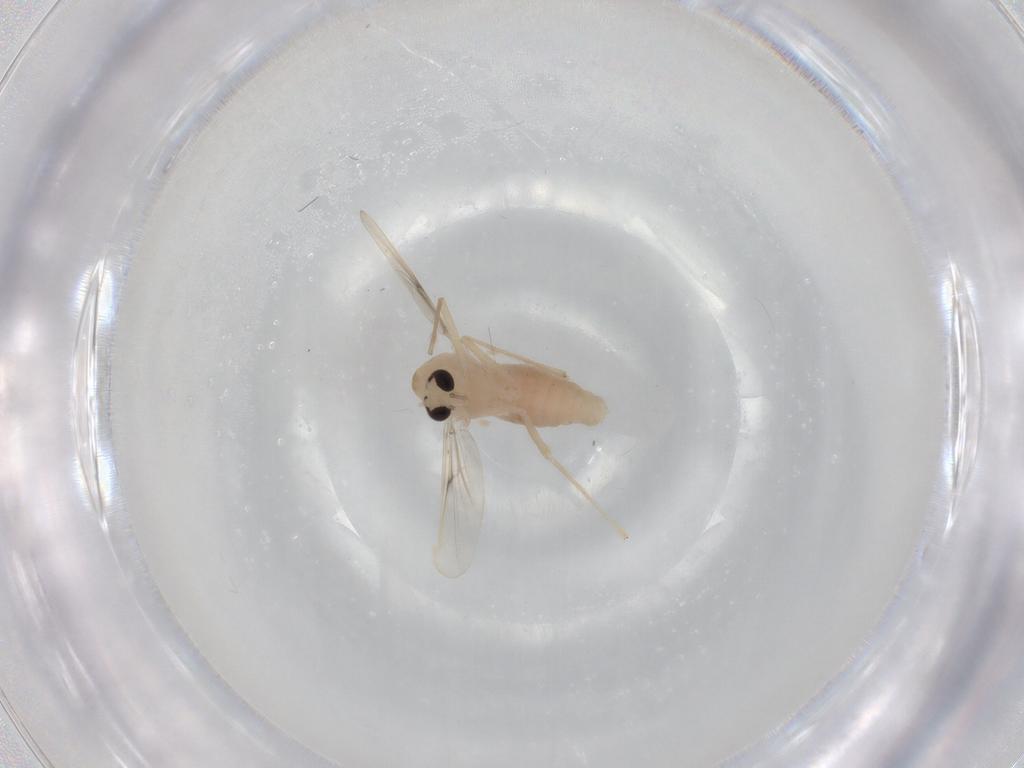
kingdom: Animalia
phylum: Arthropoda
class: Insecta
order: Diptera
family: Chironomidae
